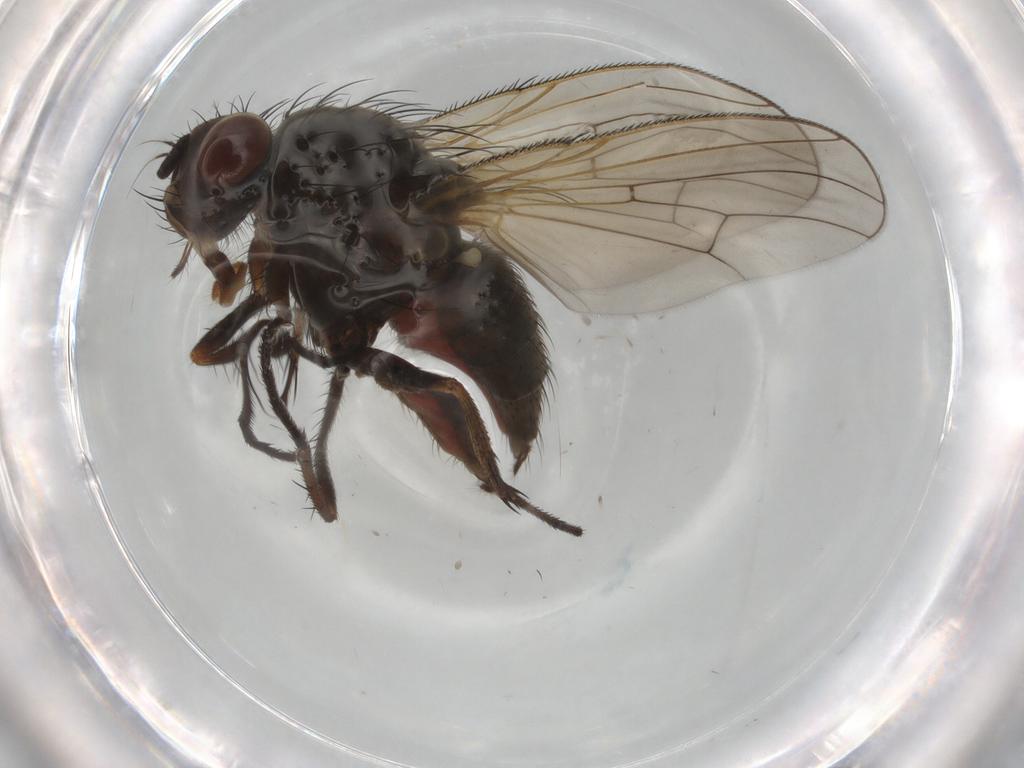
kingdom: Animalia
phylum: Arthropoda
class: Insecta
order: Diptera
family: Anthomyiidae
